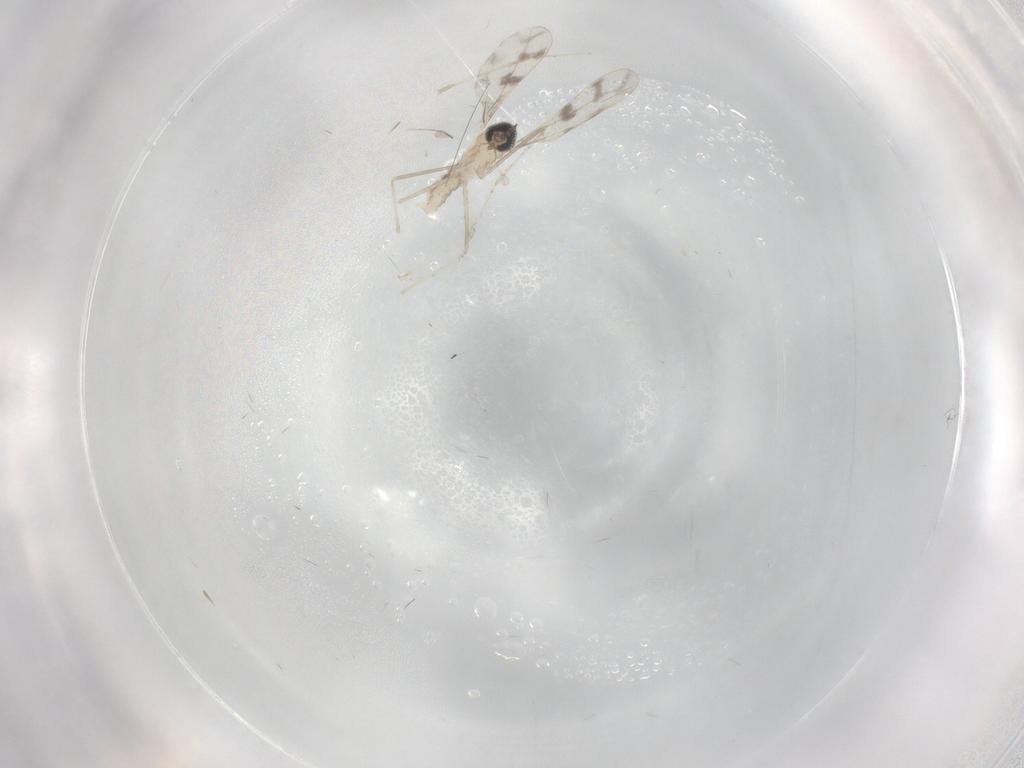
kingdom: Animalia
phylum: Arthropoda
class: Insecta
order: Diptera
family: Cecidomyiidae
